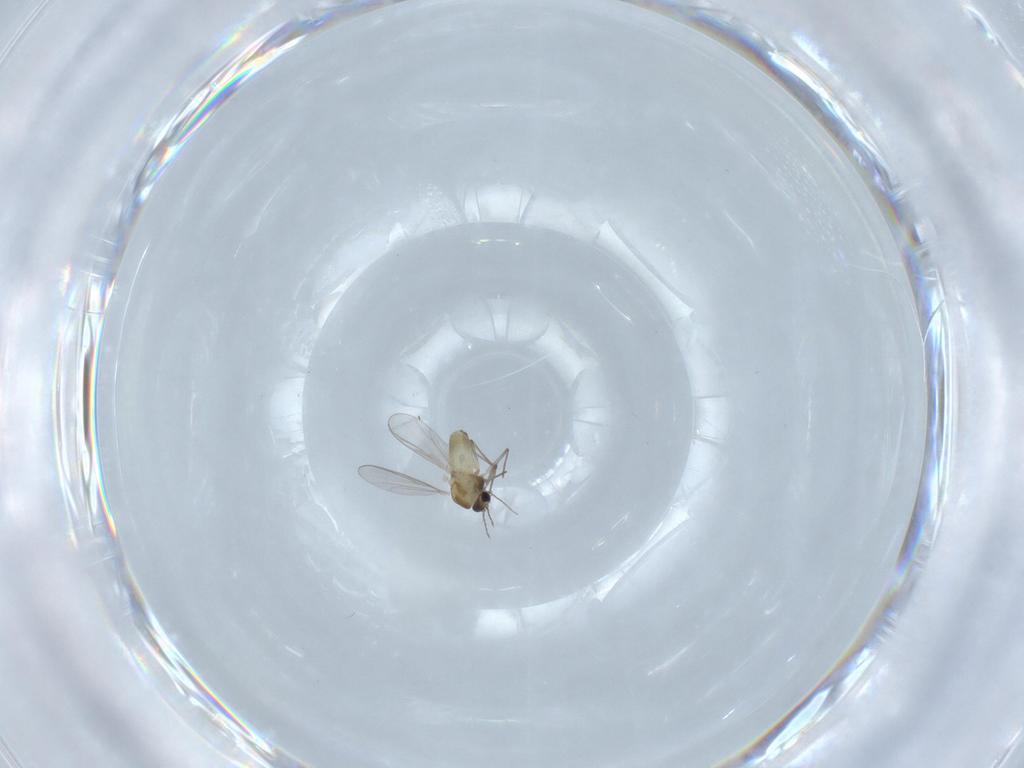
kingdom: Animalia
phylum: Arthropoda
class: Insecta
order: Diptera
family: Chironomidae
